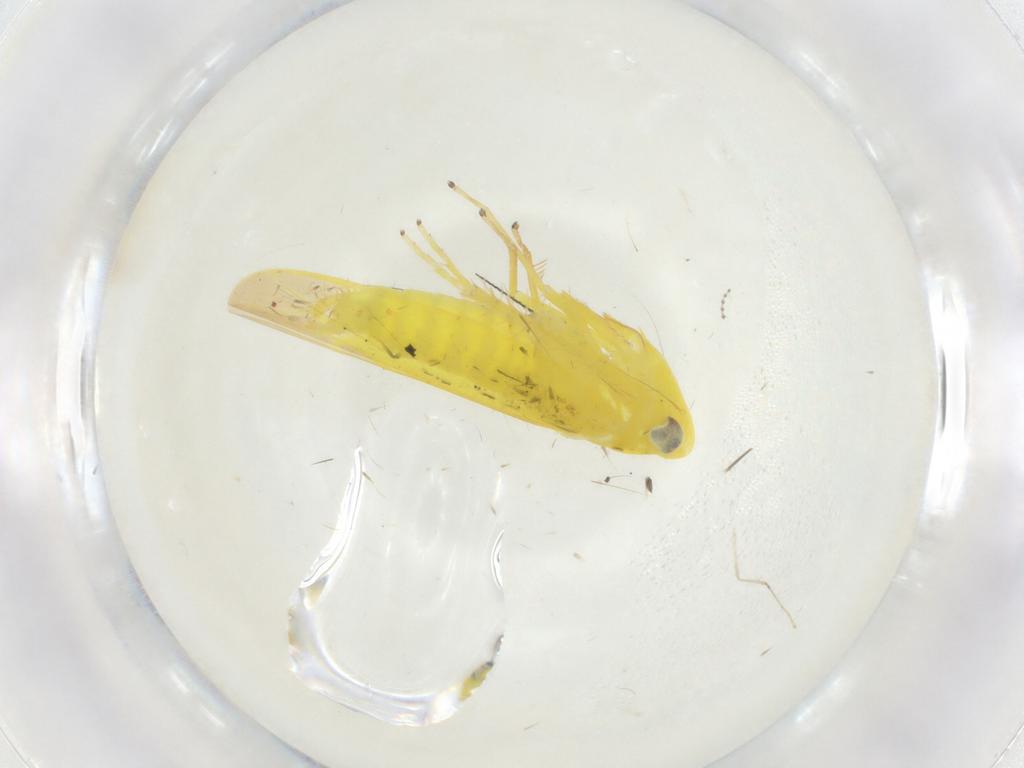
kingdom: Animalia
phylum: Arthropoda
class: Insecta
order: Hemiptera
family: Cicadellidae
